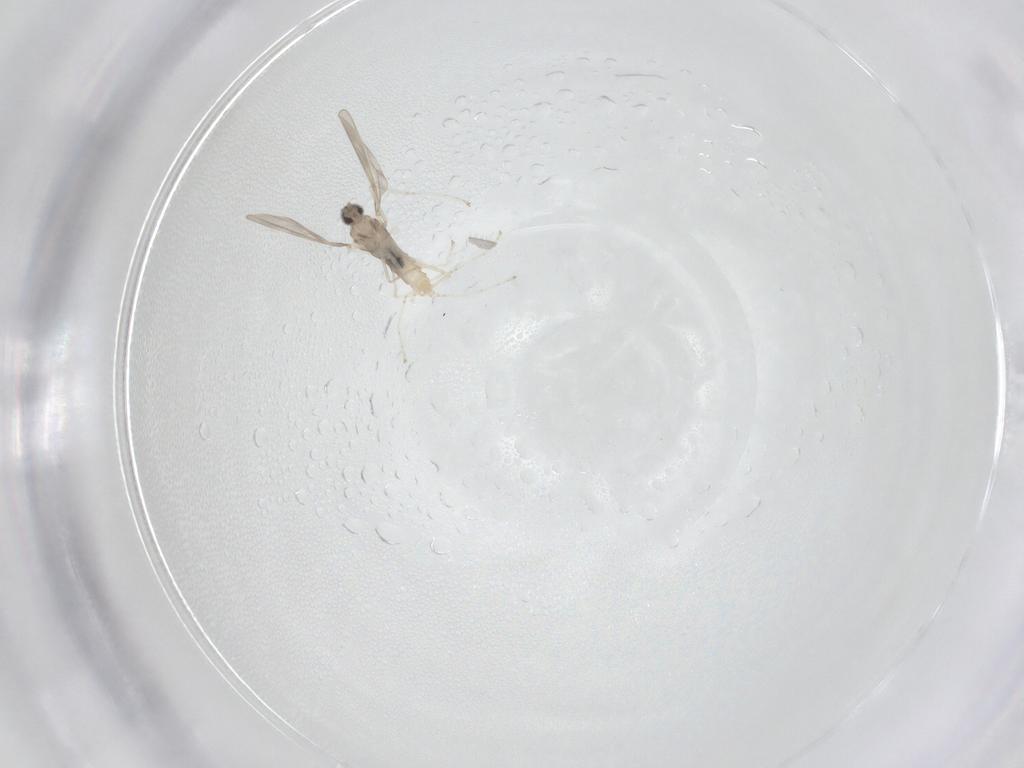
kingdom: Animalia
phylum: Arthropoda
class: Insecta
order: Diptera
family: Cecidomyiidae
